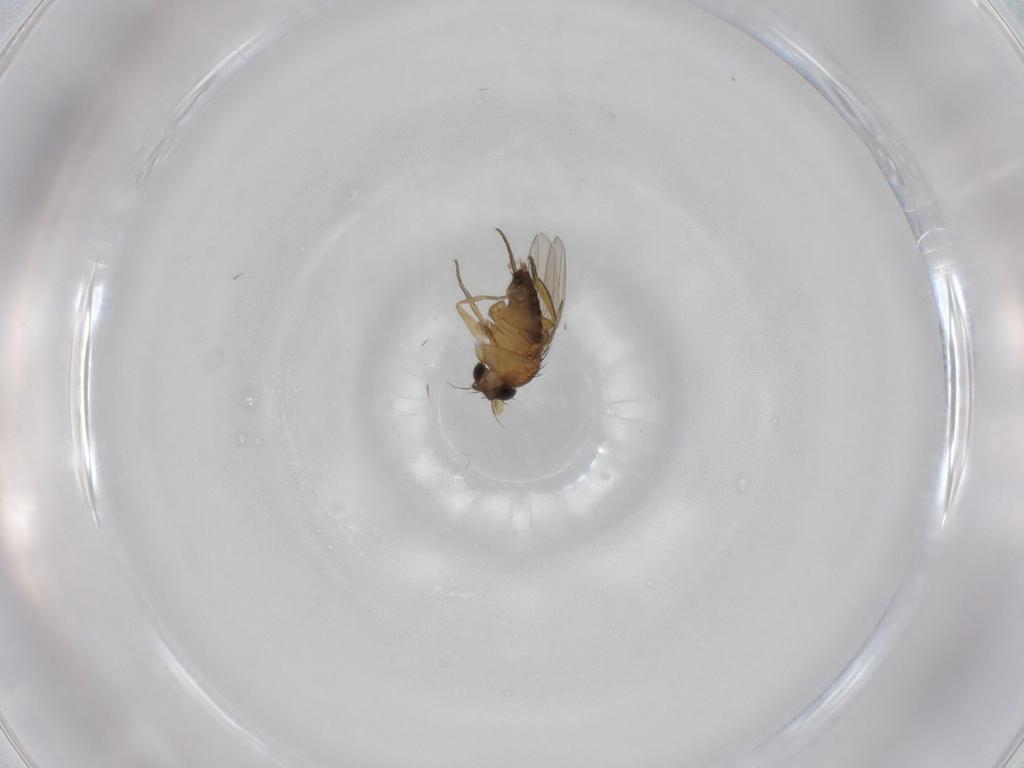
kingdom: Animalia
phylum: Arthropoda
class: Insecta
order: Diptera
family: Phoridae
